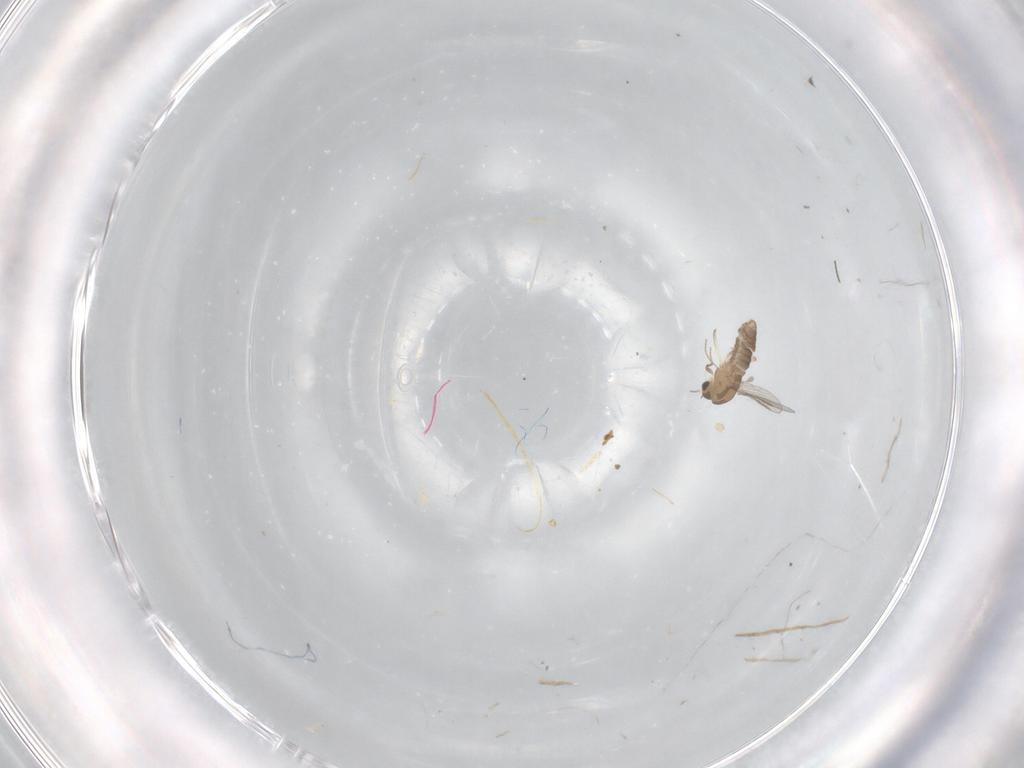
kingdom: Animalia
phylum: Arthropoda
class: Insecta
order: Diptera
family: Chironomidae
